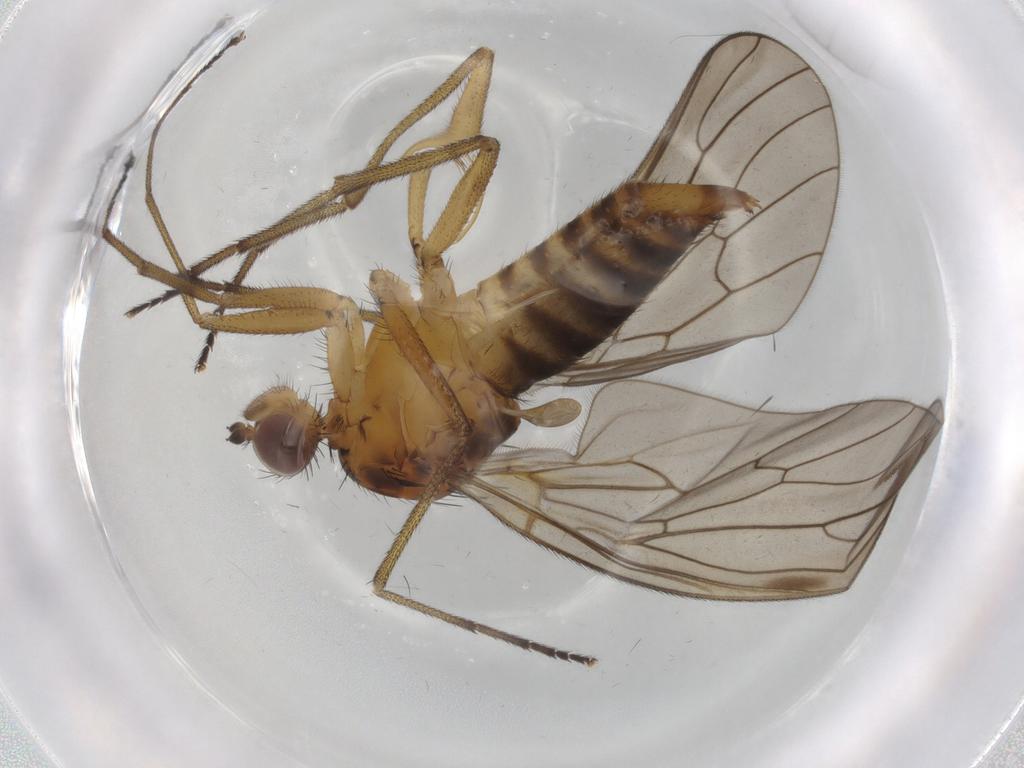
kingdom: Animalia
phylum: Arthropoda
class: Insecta
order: Diptera
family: Brachystomatidae
